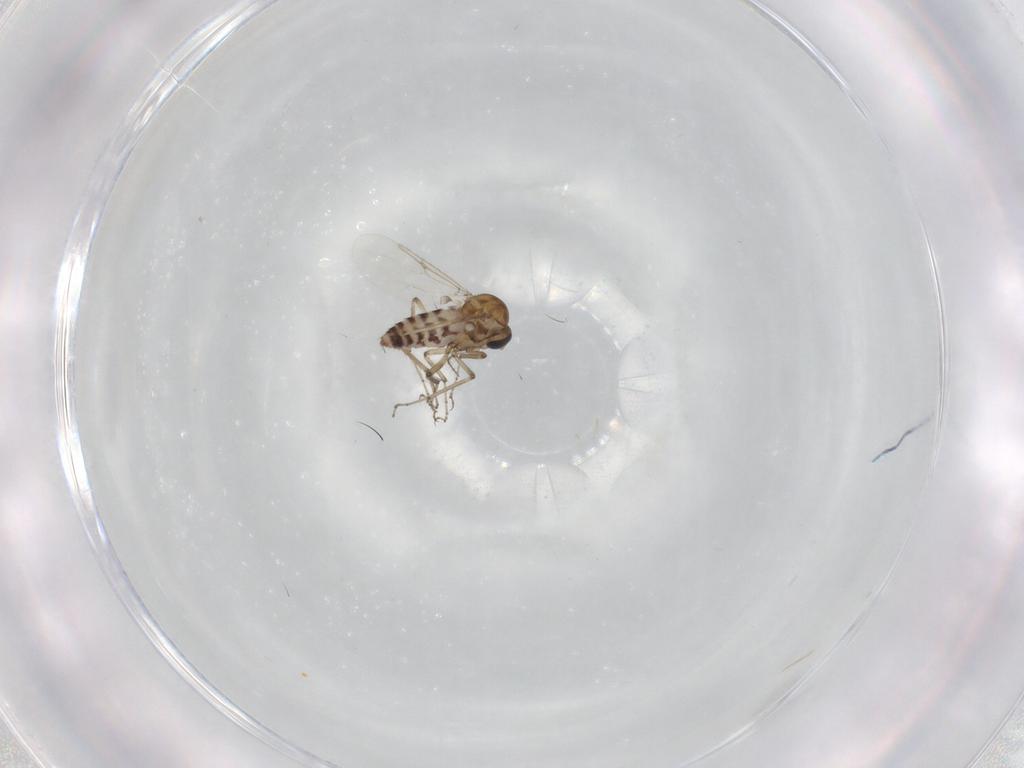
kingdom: Animalia
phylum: Arthropoda
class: Insecta
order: Diptera
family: Ceratopogonidae
